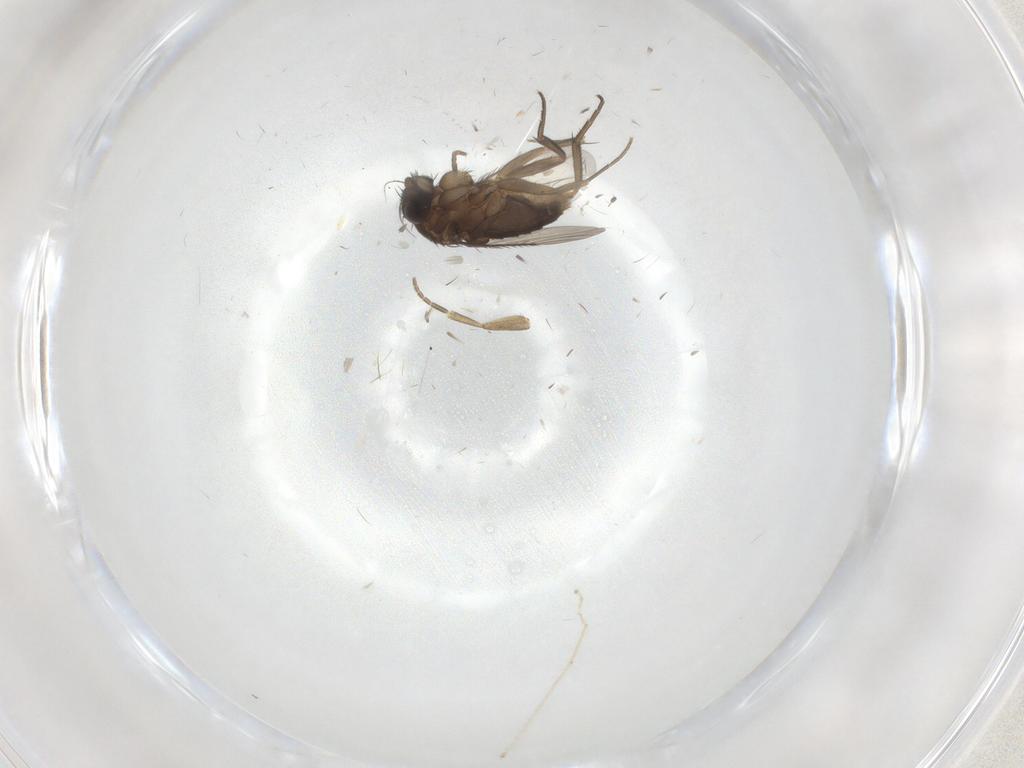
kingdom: Animalia
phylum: Arthropoda
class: Insecta
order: Diptera
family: Phoridae
